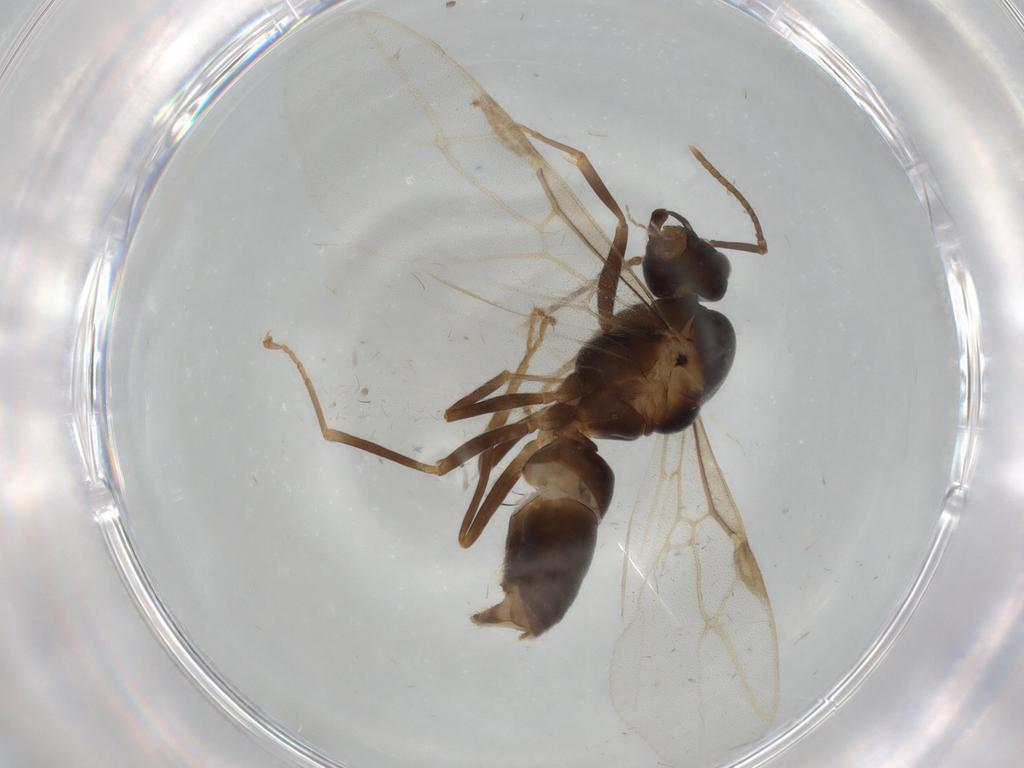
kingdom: Animalia
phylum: Arthropoda
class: Insecta
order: Hymenoptera
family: Formicidae
